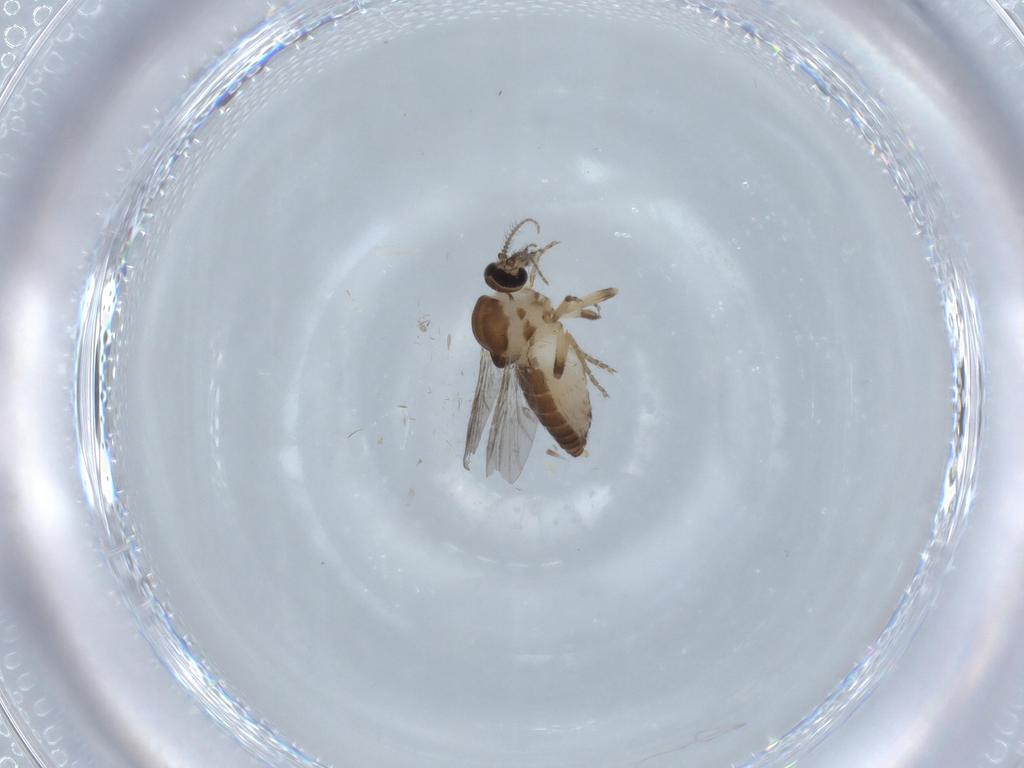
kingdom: Animalia
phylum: Arthropoda
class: Insecta
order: Diptera
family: Ceratopogonidae
